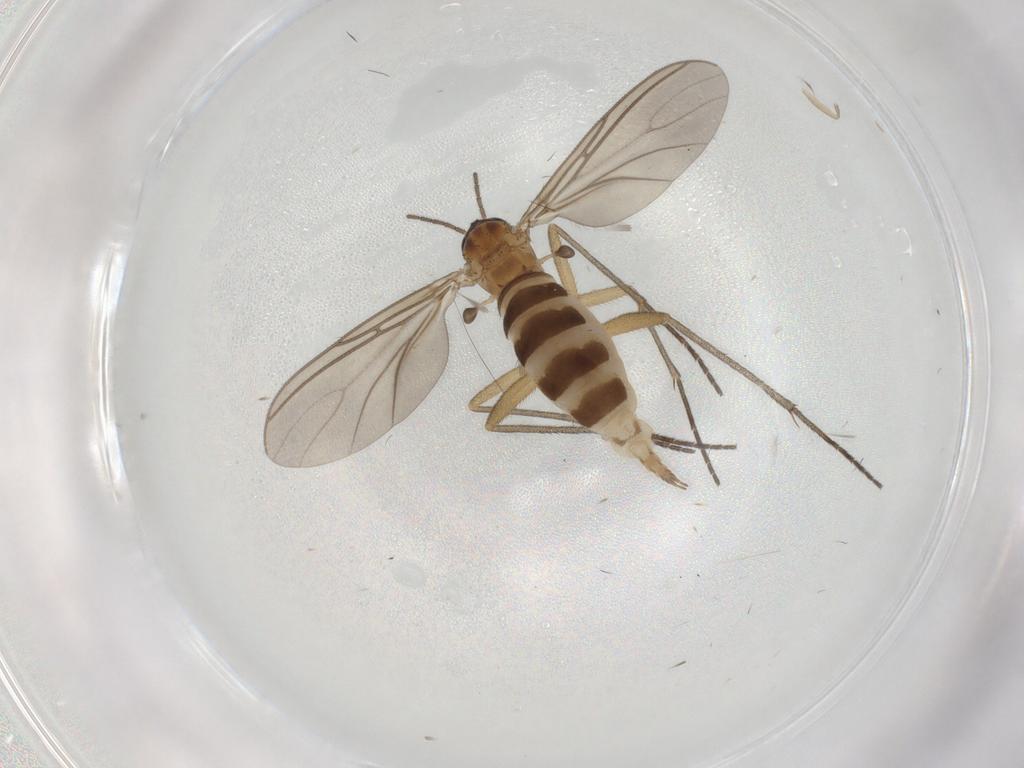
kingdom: Animalia
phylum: Arthropoda
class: Insecta
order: Diptera
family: Sciaridae
